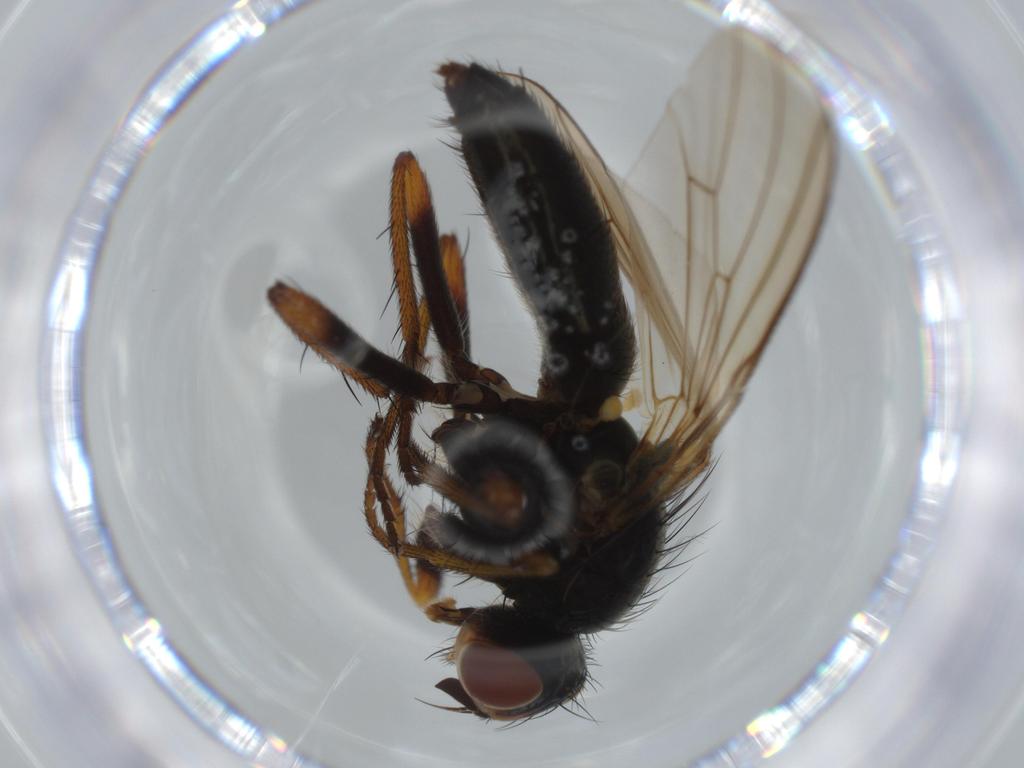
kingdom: Animalia
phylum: Arthropoda
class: Insecta
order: Diptera
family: Scathophagidae
